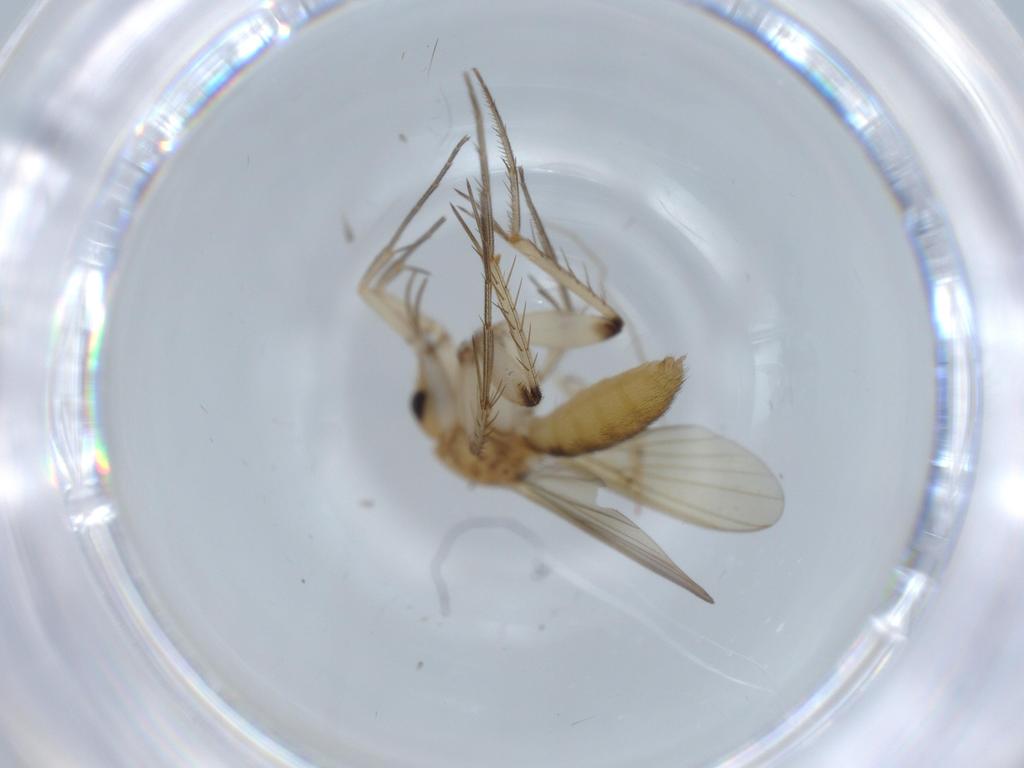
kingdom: Animalia
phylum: Arthropoda
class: Insecta
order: Diptera
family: Mycetophilidae
